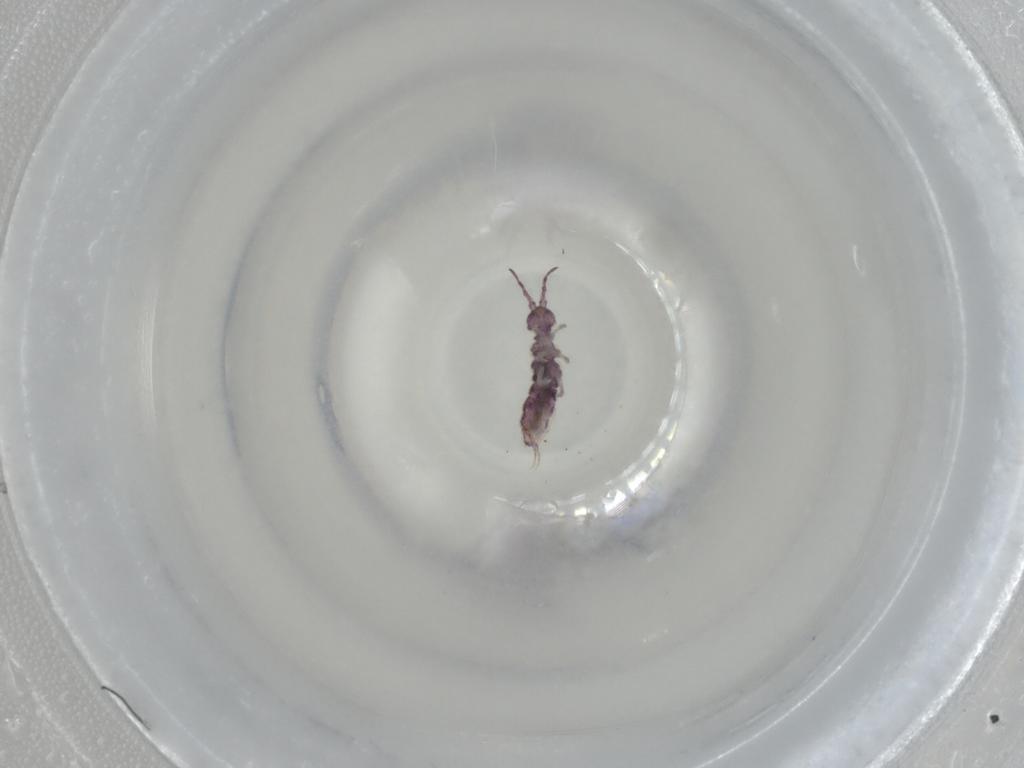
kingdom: Animalia
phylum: Arthropoda
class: Collembola
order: Entomobryomorpha
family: Isotomidae
